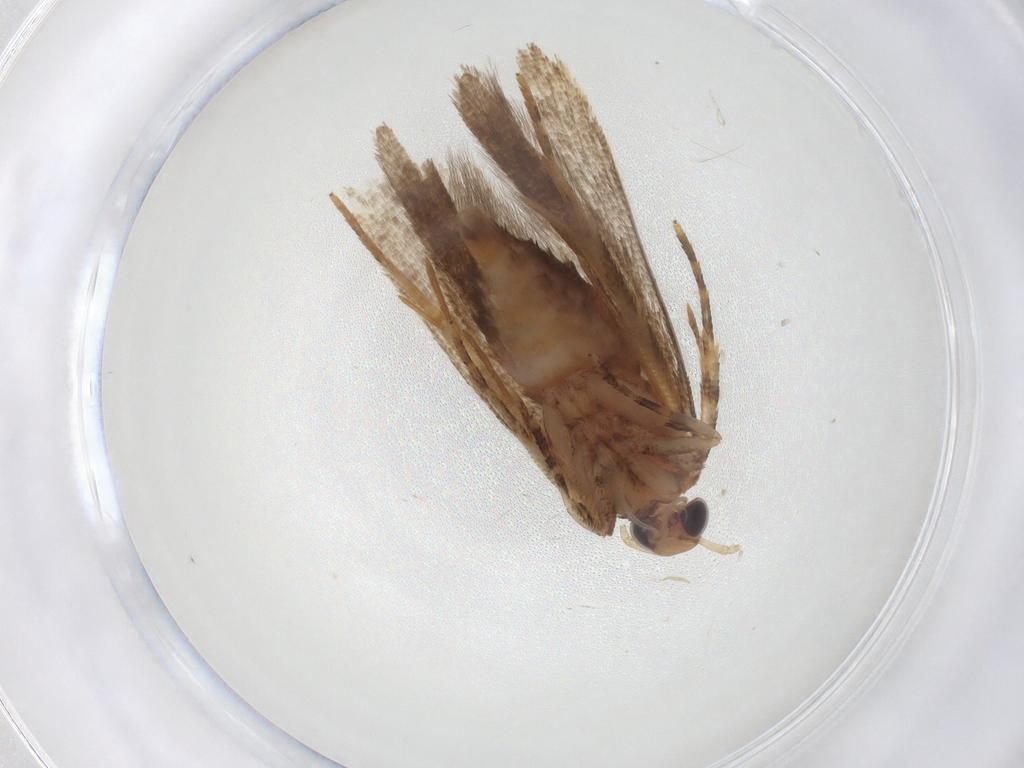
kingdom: Animalia
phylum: Arthropoda
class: Insecta
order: Lepidoptera
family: Gelechiidae
